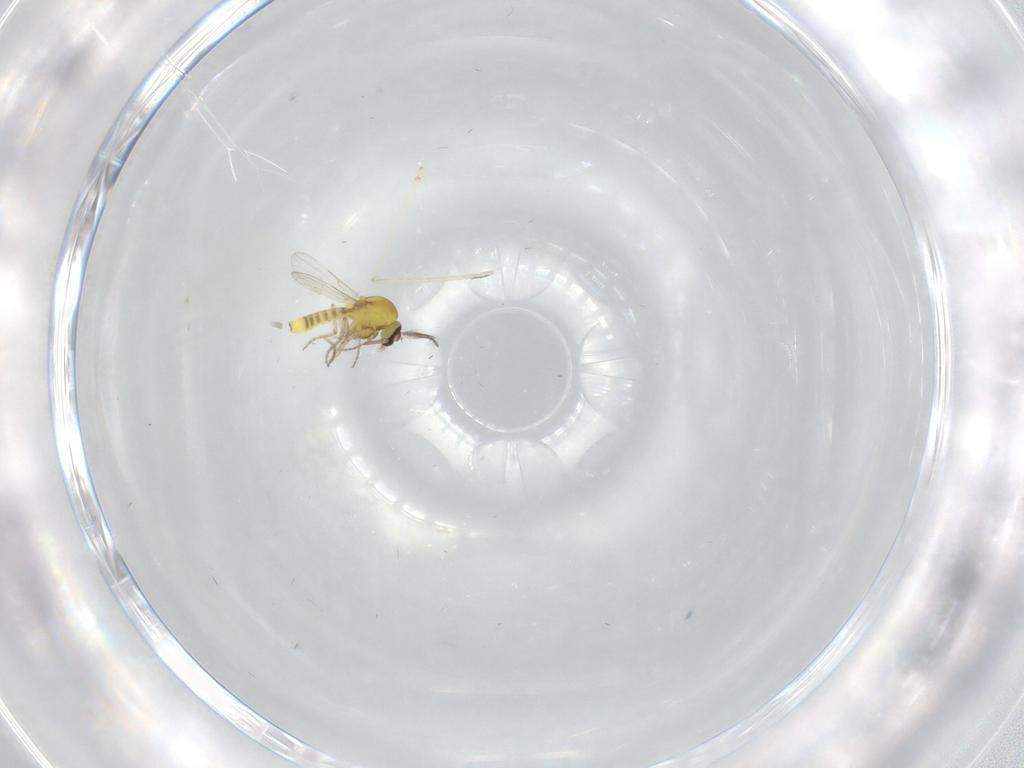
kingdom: Animalia
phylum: Arthropoda
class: Insecta
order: Diptera
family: Ceratopogonidae
